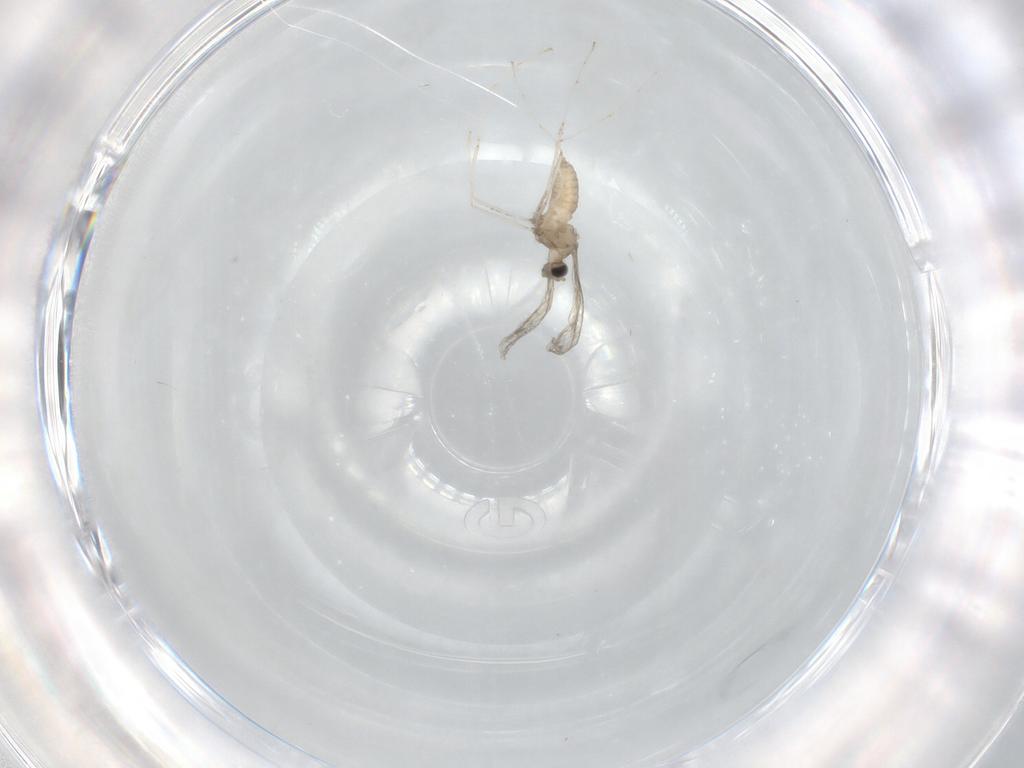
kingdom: Animalia
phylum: Arthropoda
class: Insecta
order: Diptera
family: Cecidomyiidae
